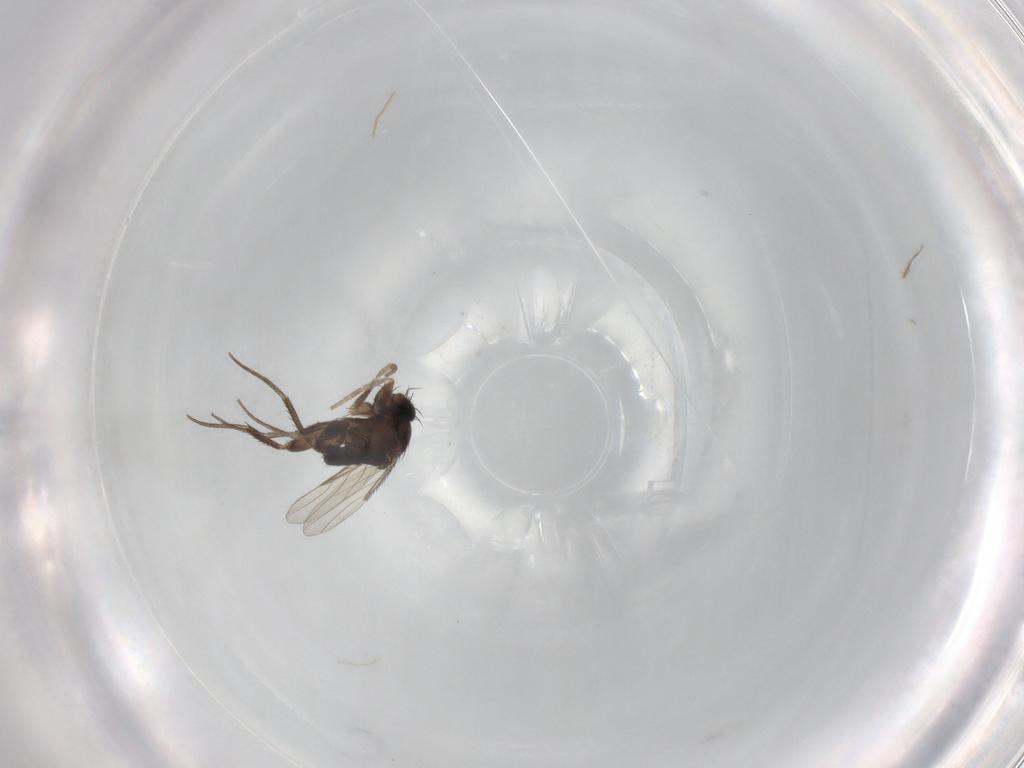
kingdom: Animalia
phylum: Arthropoda
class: Insecta
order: Diptera
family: Phoridae
